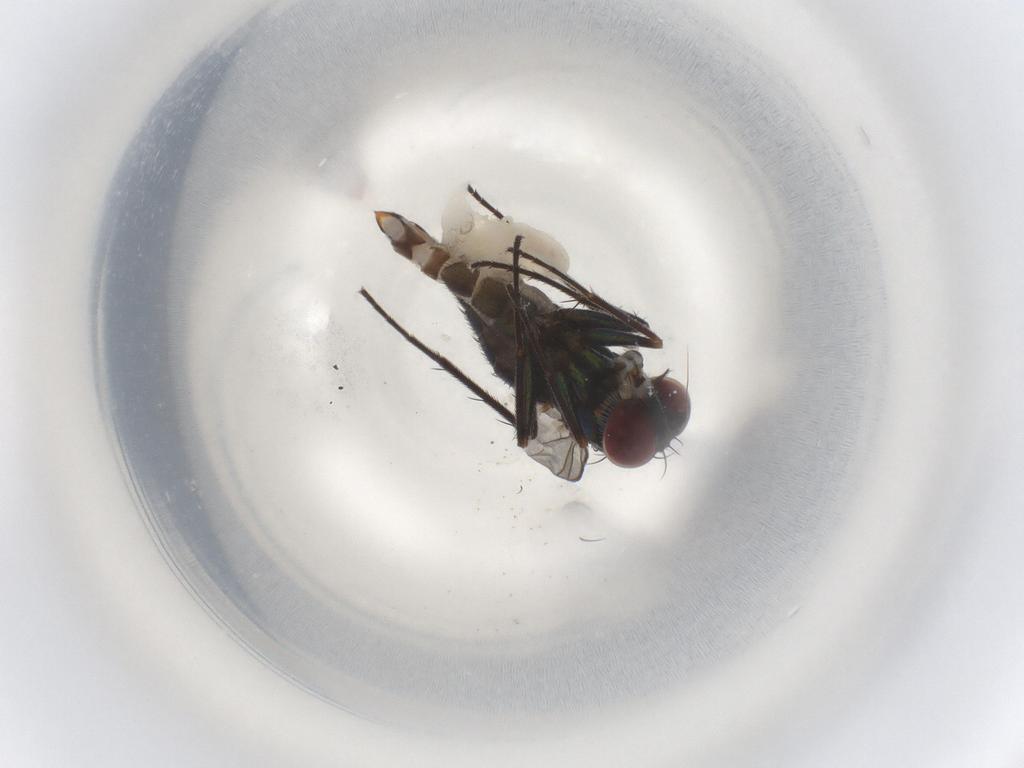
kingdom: Animalia
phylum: Arthropoda
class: Insecta
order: Diptera
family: Dolichopodidae
